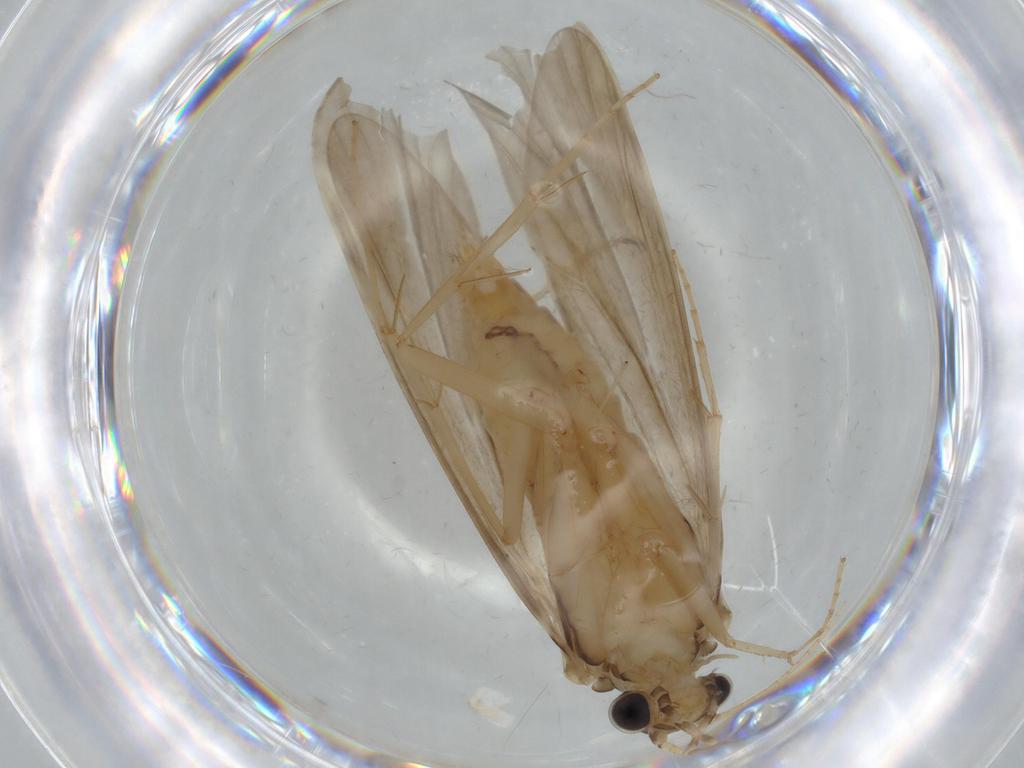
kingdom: Animalia
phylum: Arthropoda
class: Insecta
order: Trichoptera
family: Ecnomidae
